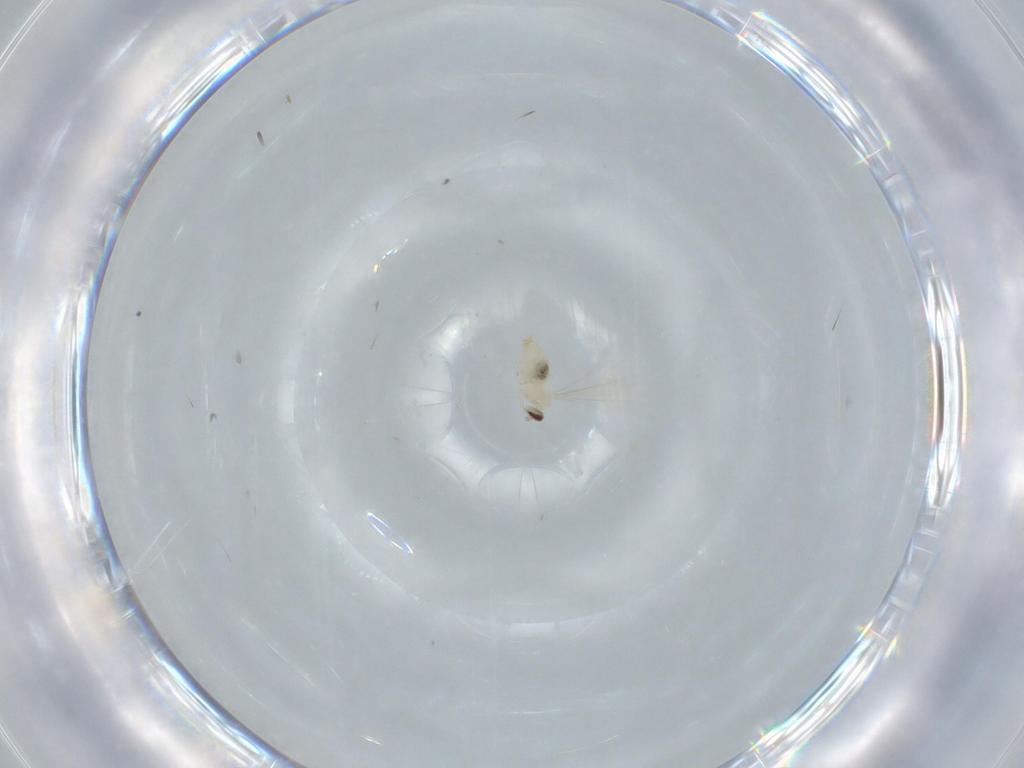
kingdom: Animalia
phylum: Arthropoda
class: Insecta
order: Diptera
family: Cecidomyiidae
